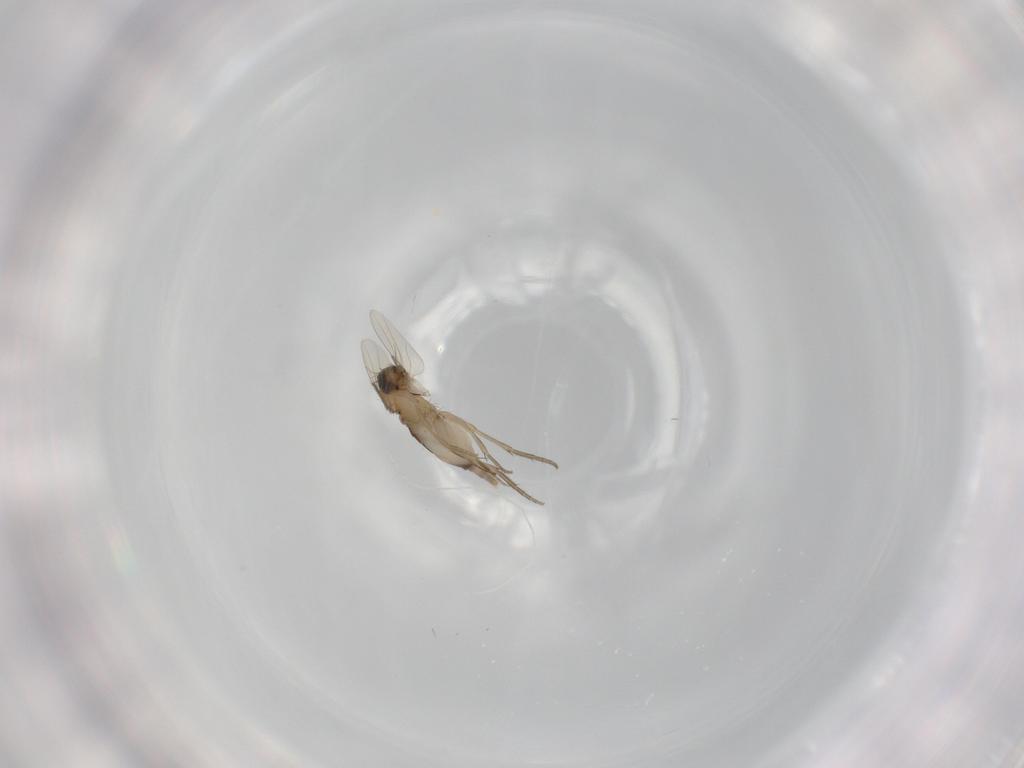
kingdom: Animalia
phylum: Arthropoda
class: Insecta
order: Diptera
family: Phoridae
